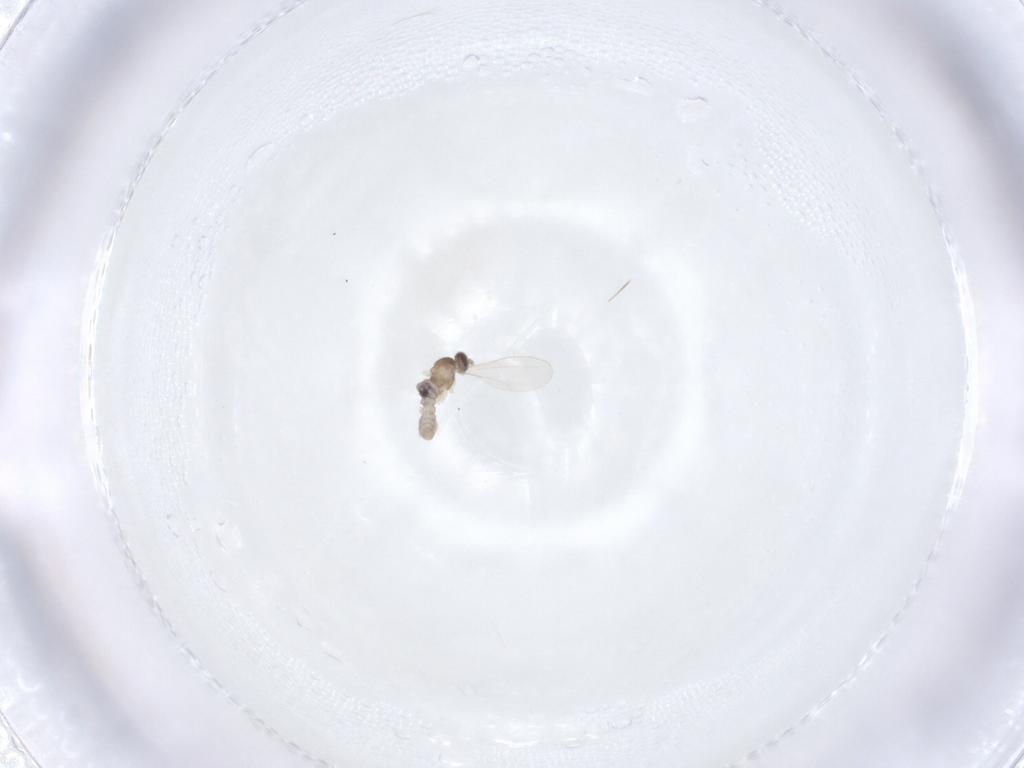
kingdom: Animalia
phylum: Arthropoda
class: Insecta
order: Diptera
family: Cecidomyiidae
